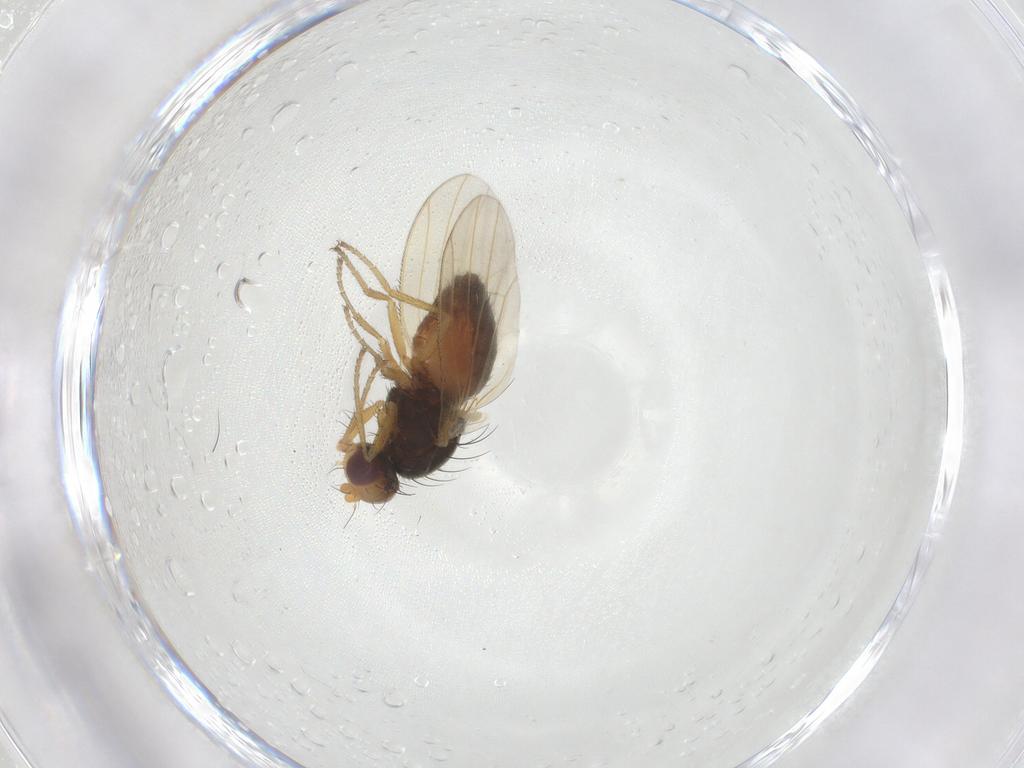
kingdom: Animalia
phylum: Arthropoda
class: Insecta
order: Diptera
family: Heleomyzidae
